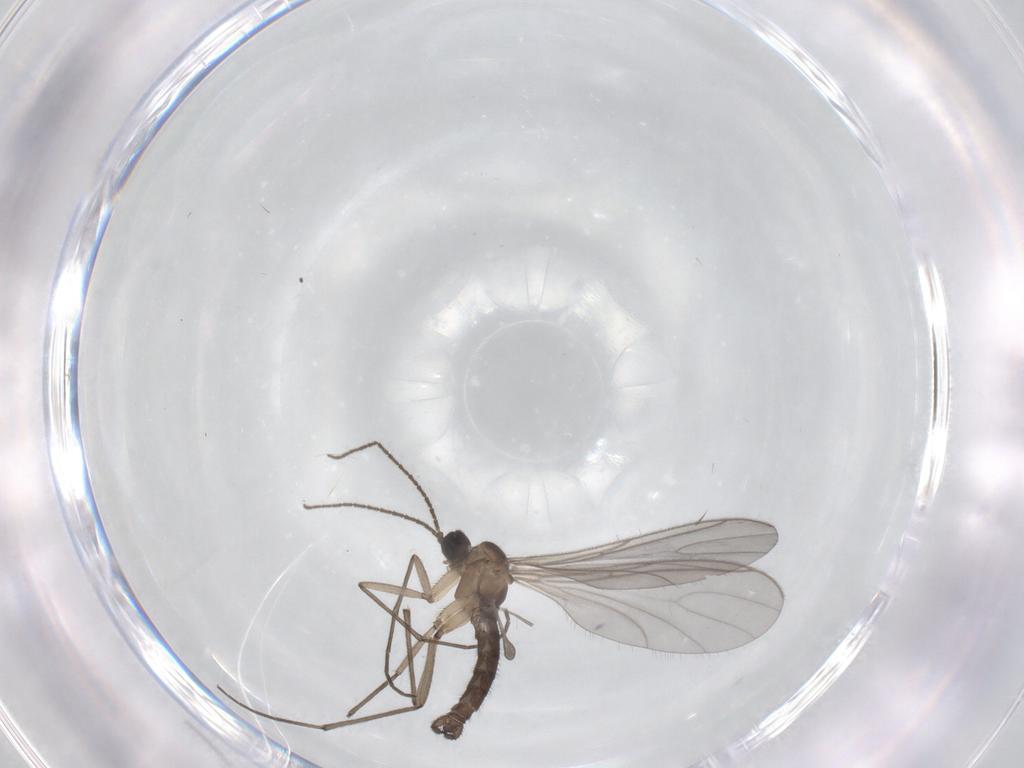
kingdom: Animalia
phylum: Arthropoda
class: Insecta
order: Diptera
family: Sciaridae
